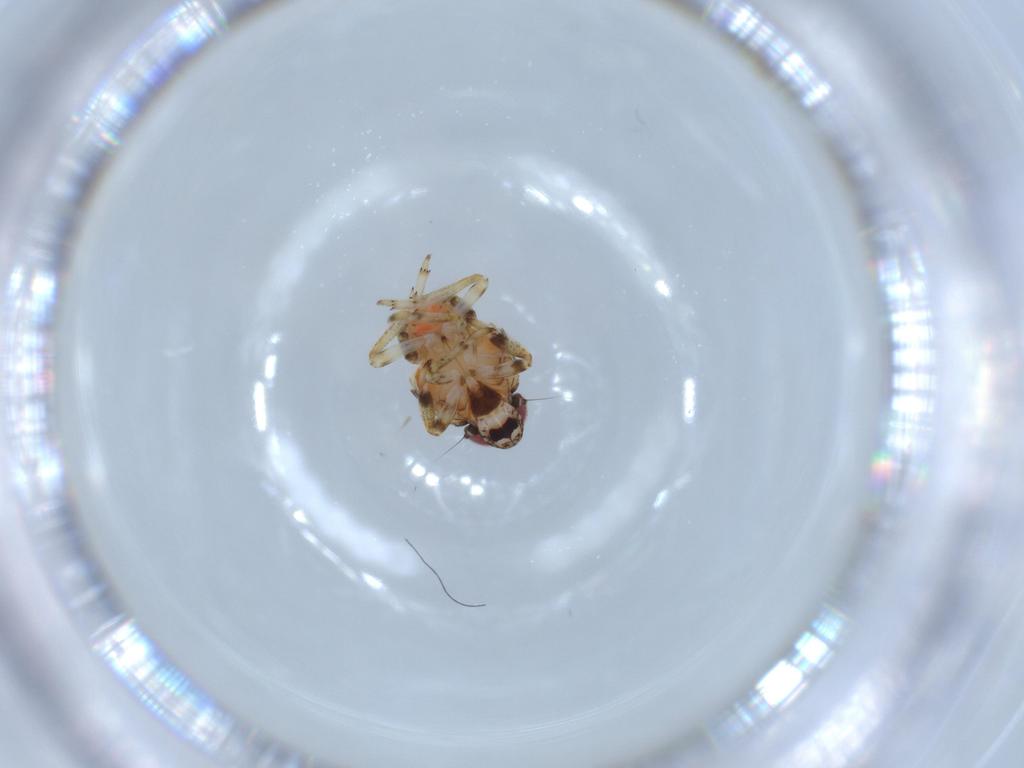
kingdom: Animalia
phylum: Arthropoda
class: Insecta
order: Hemiptera
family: Issidae
